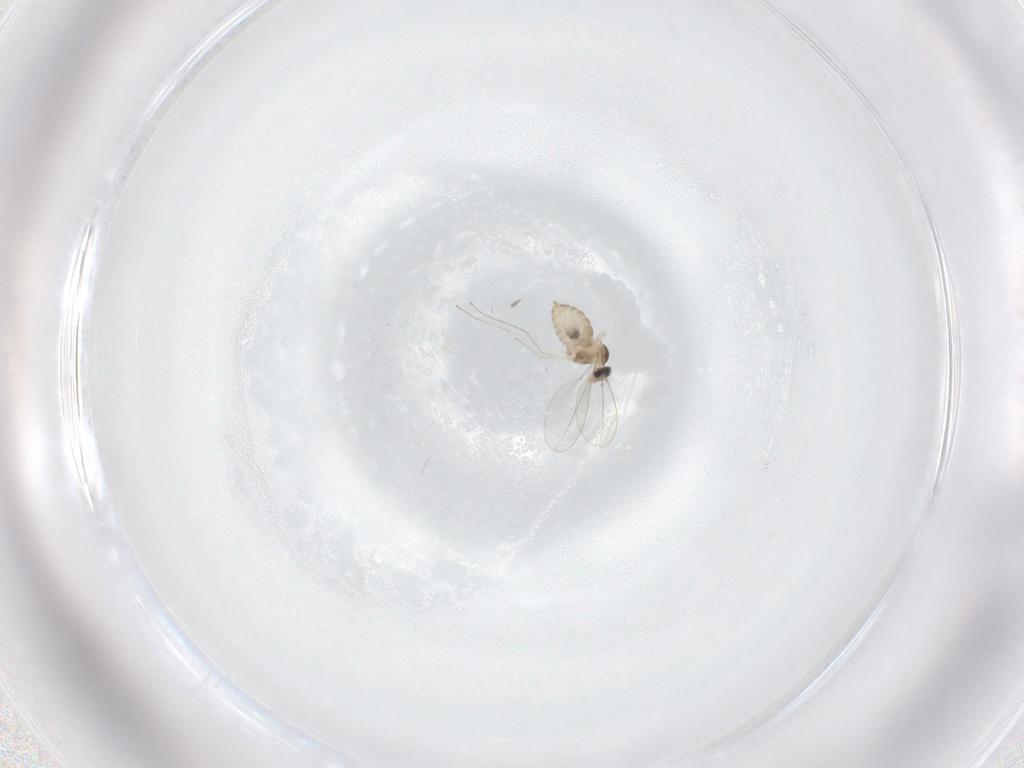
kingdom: Animalia
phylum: Arthropoda
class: Insecta
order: Diptera
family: Cecidomyiidae
